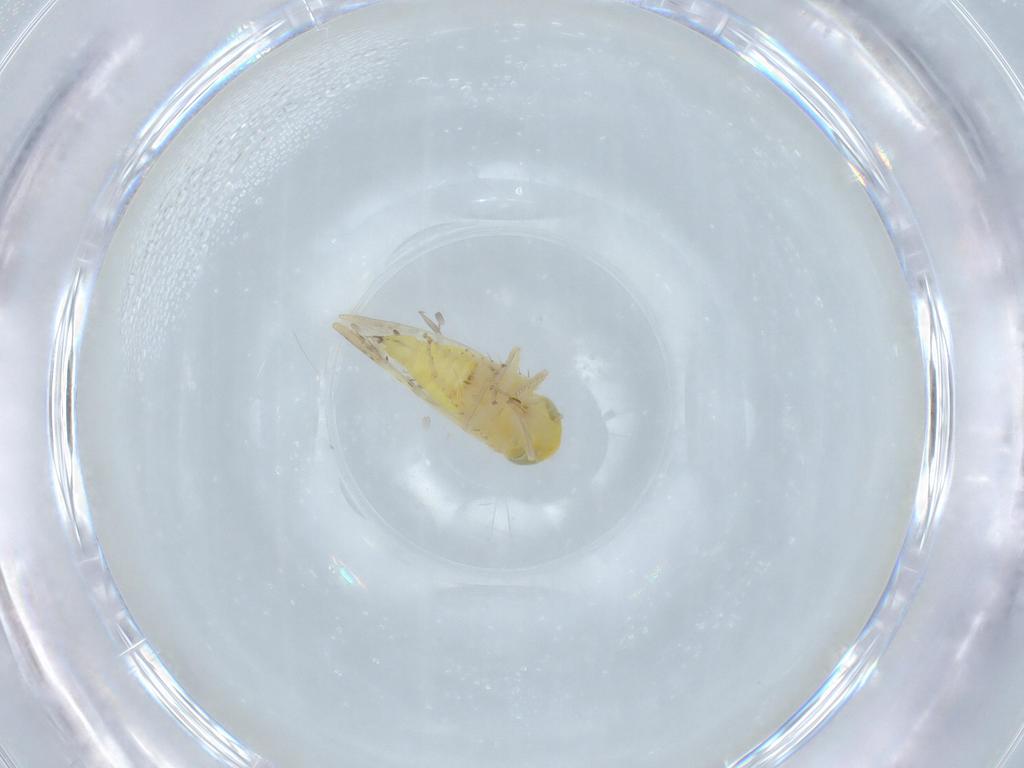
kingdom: Animalia
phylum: Arthropoda
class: Insecta
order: Hemiptera
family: Cicadellidae
